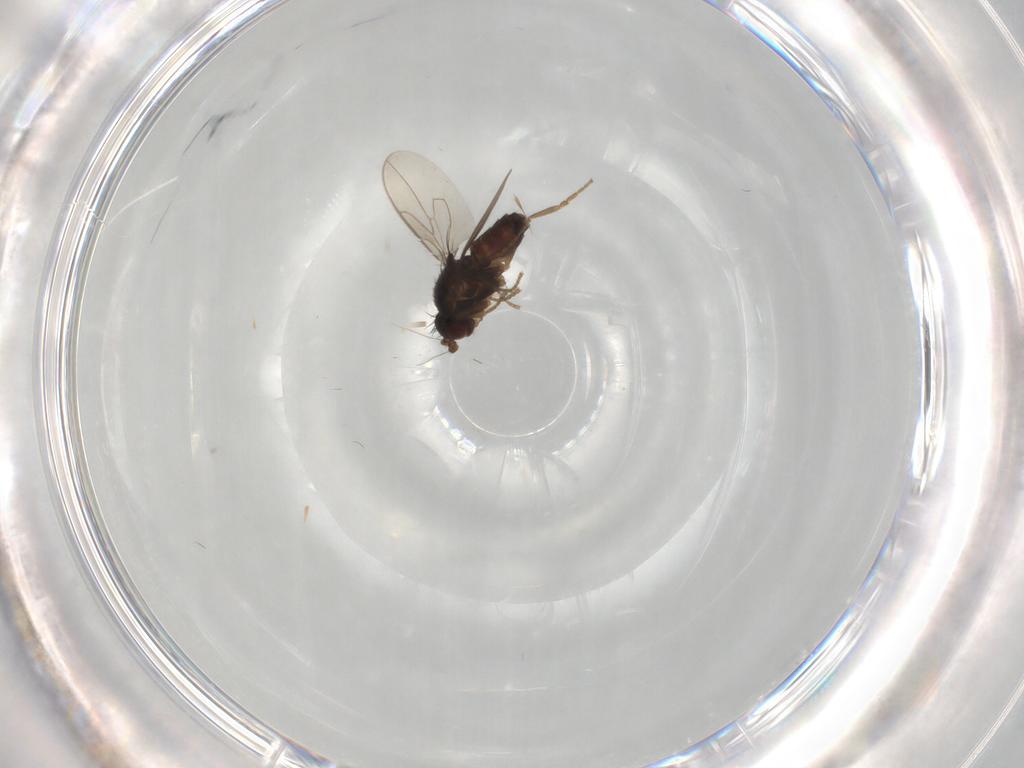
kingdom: Animalia
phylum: Arthropoda
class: Insecta
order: Diptera
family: Sphaeroceridae
